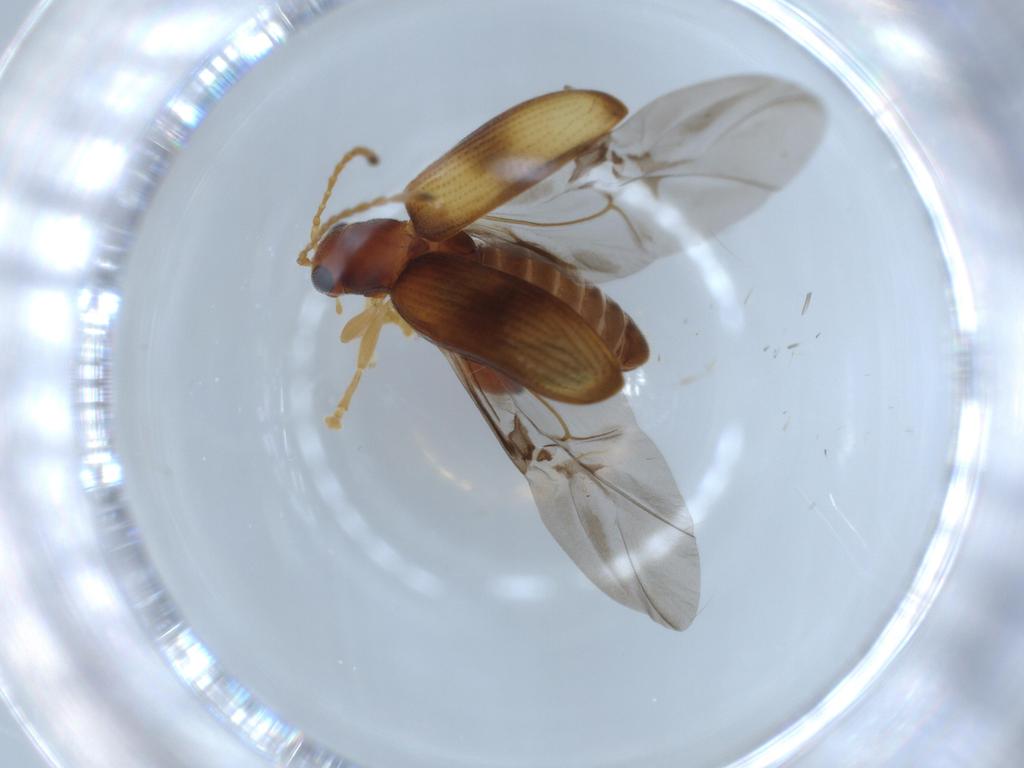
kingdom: Animalia
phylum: Arthropoda
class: Insecta
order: Coleoptera
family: Chrysomelidae
